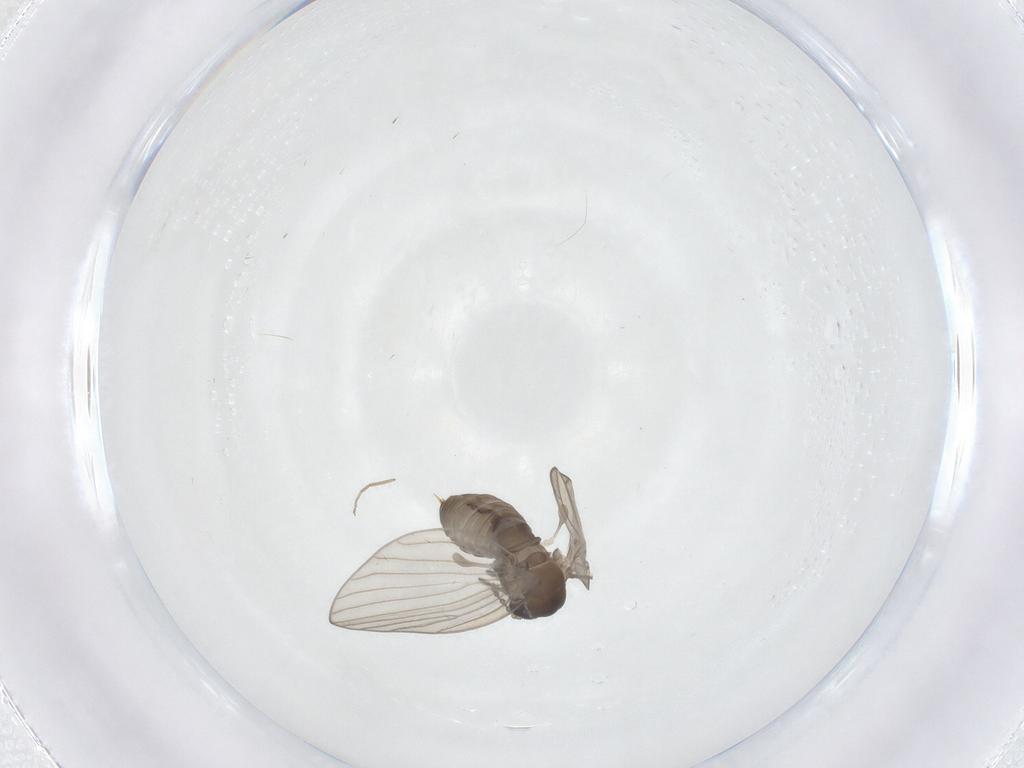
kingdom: Animalia
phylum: Arthropoda
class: Insecta
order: Diptera
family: Psychodidae
